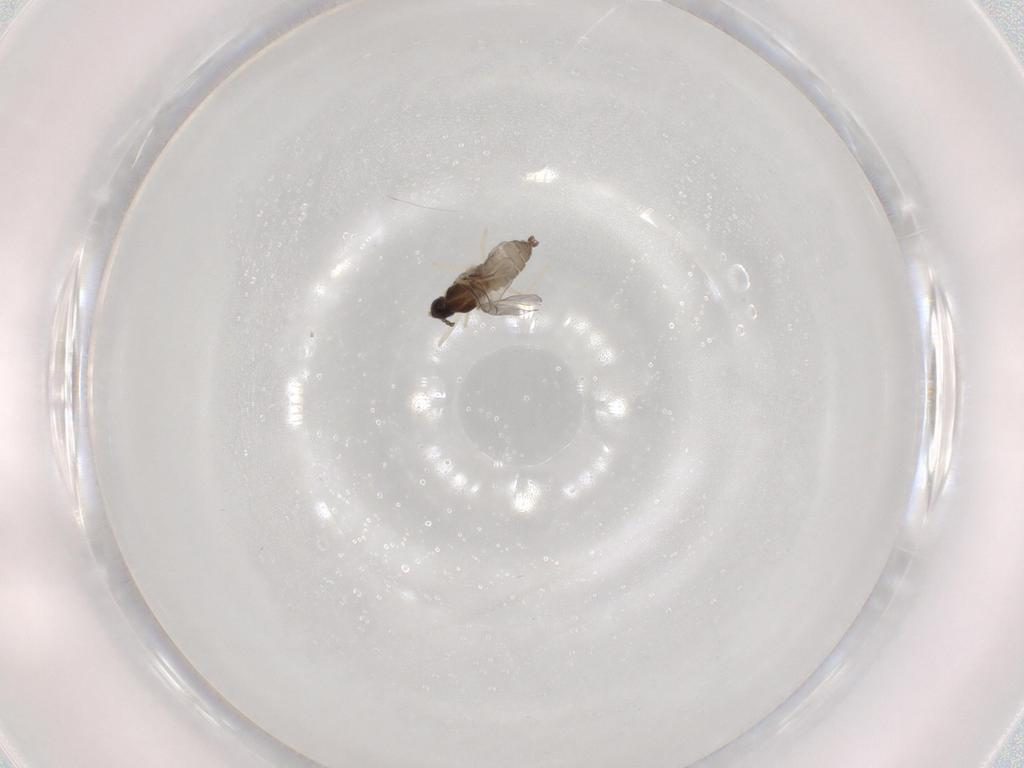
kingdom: Animalia
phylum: Arthropoda
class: Insecta
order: Diptera
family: Cecidomyiidae
